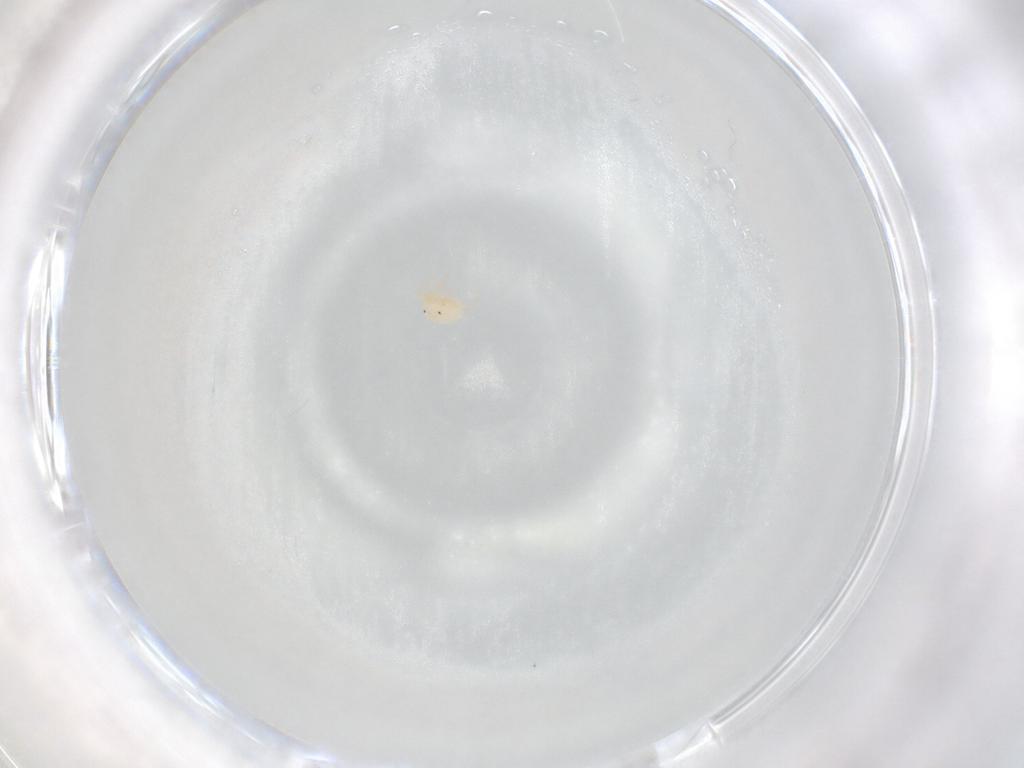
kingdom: Animalia
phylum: Arthropoda
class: Arachnida
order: Trombidiformes
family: Sperchontidae
